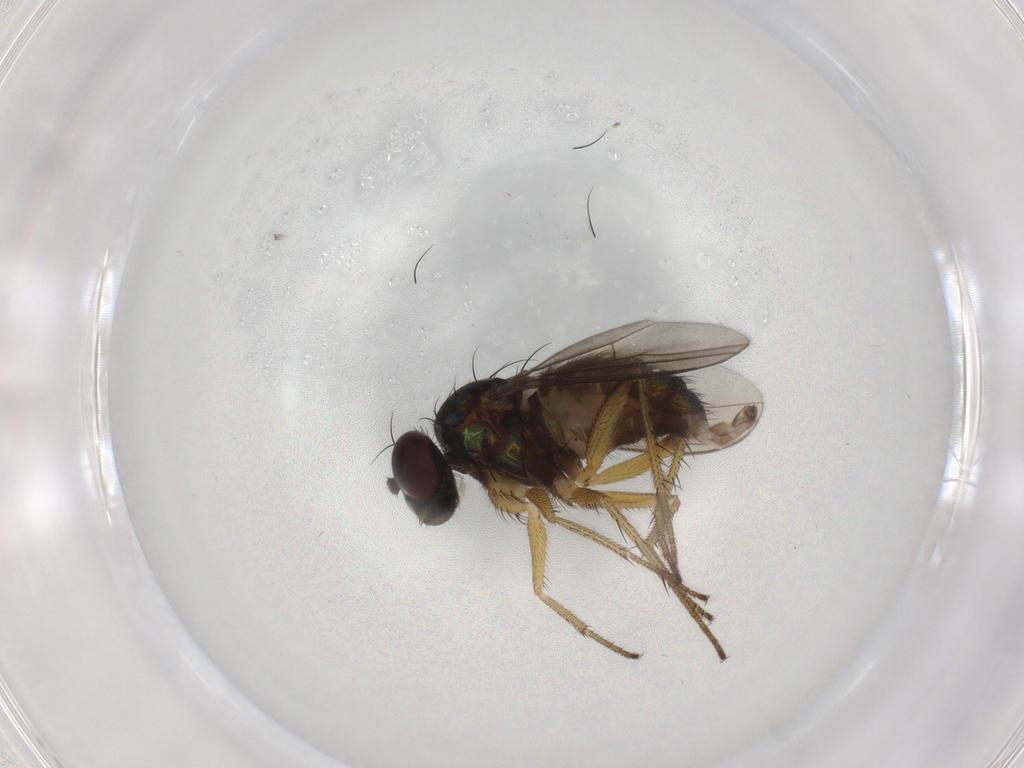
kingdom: Animalia
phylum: Arthropoda
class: Insecta
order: Diptera
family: Dolichopodidae
